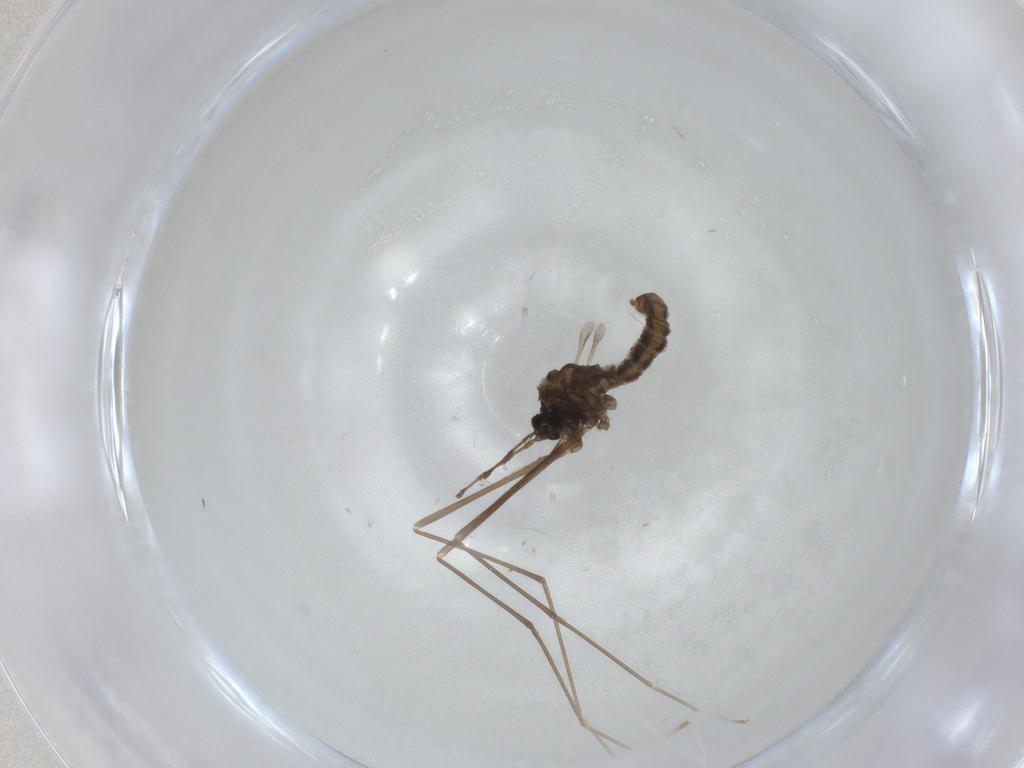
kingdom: Animalia
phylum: Arthropoda
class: Insecta
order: Diptera
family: Cecidomyiidae
